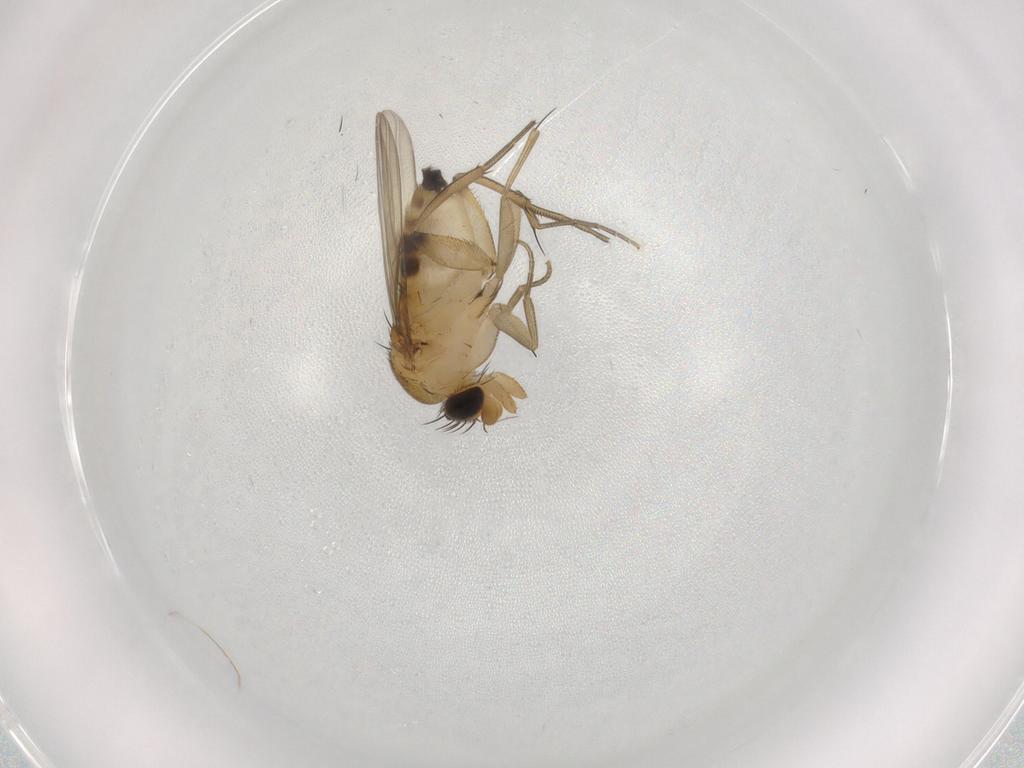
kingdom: Animalia
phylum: Arthropoda
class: Insecta
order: Diptera
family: Phoridae
